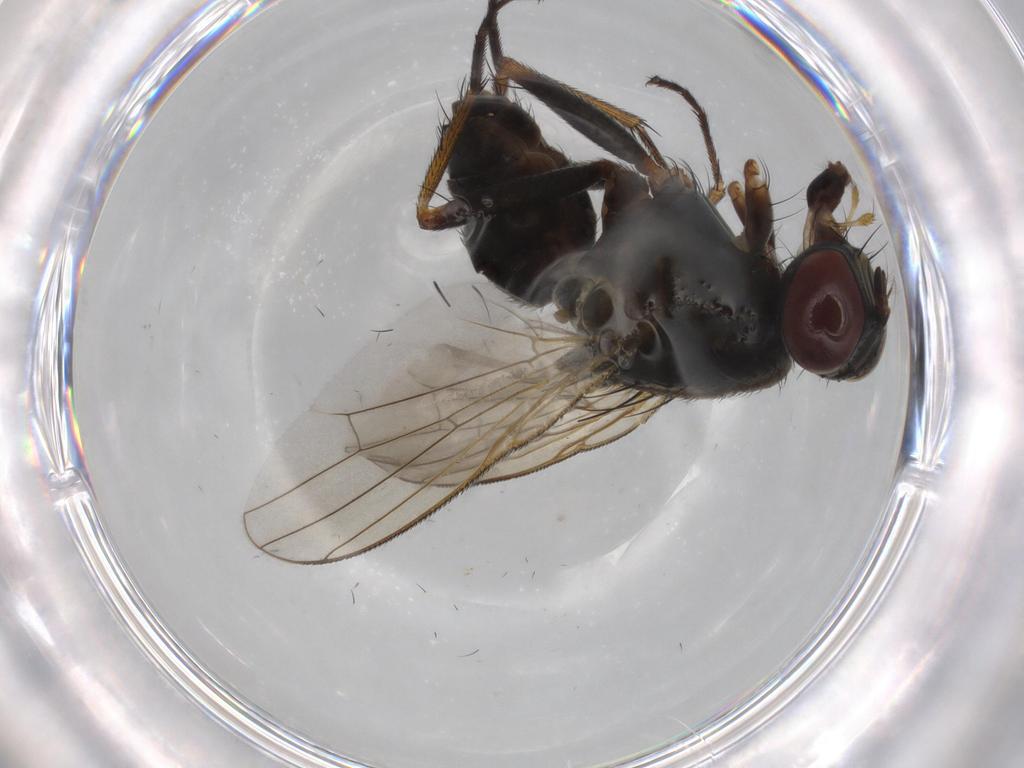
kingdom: Animalia
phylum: Arthropoda
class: Insecta
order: Diptera
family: Muscidae
